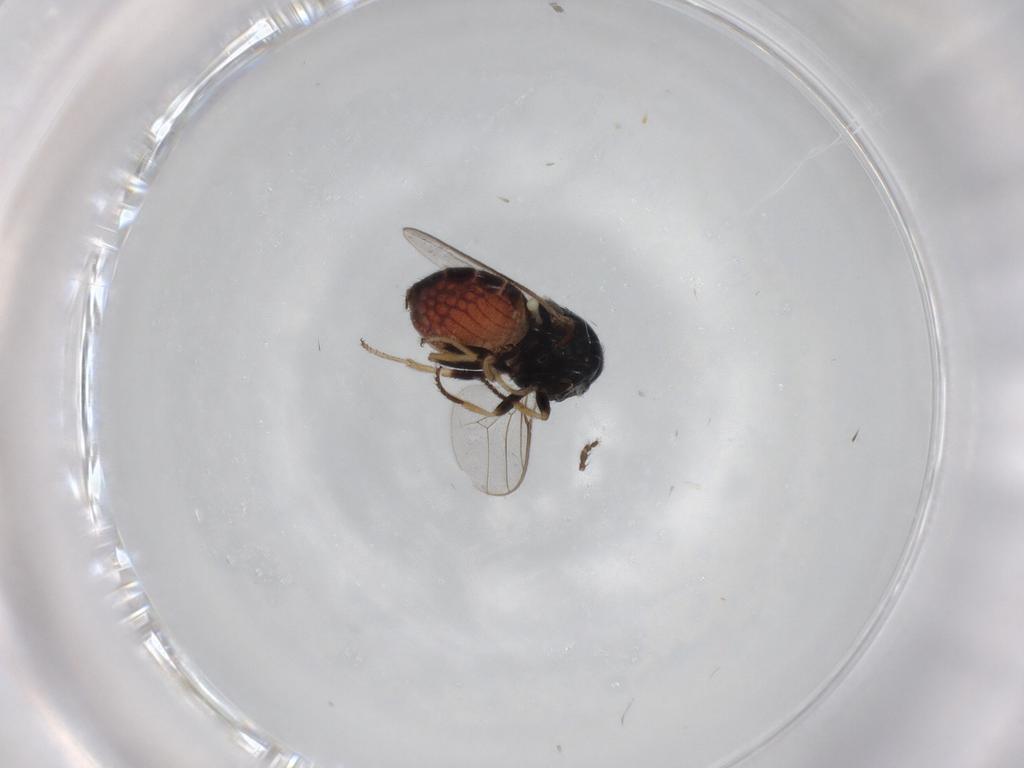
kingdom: Animalia
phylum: Arthropoda
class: Insecta
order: Diptera
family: Chloropidae
